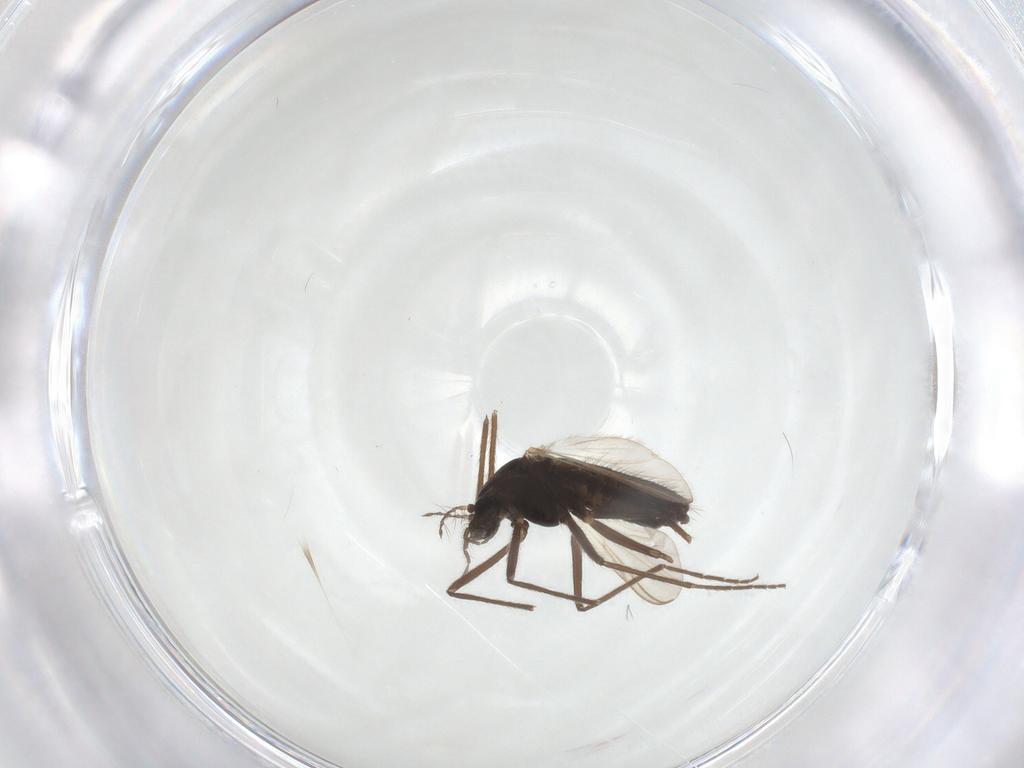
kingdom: Animalia
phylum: Arthropoda
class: Insecta
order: Diptera
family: Chironomidae
